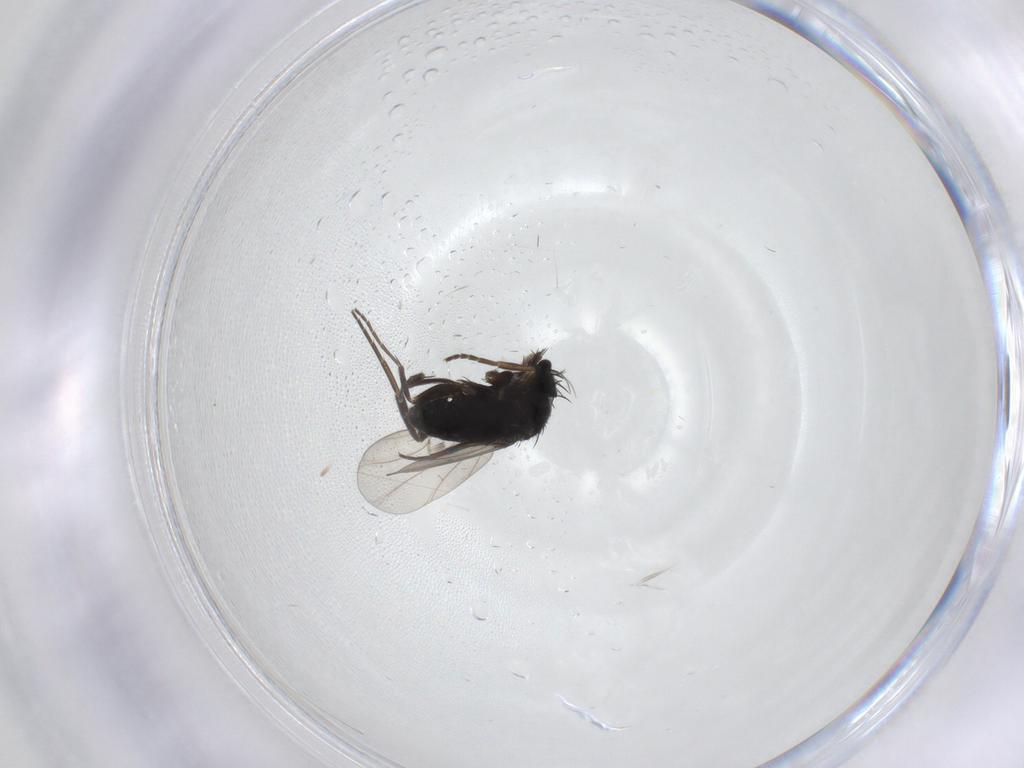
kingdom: Animalia
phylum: Arthropoda
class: Insecta
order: Diptera
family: Phoridae
